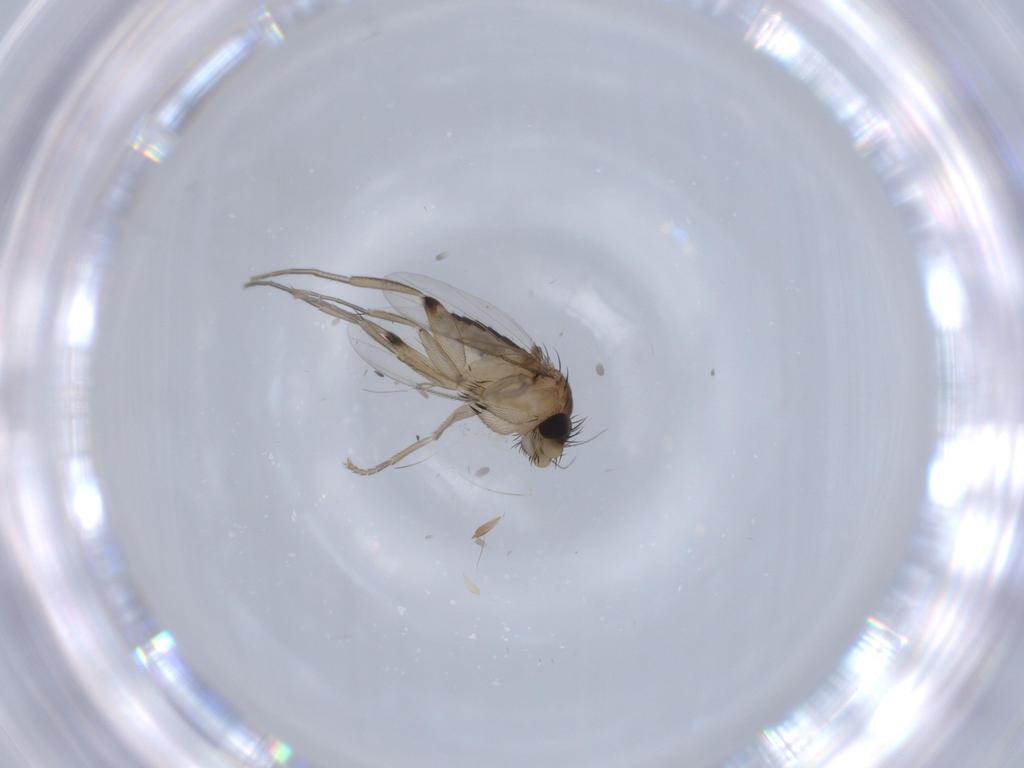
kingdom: Animalia
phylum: Arthropoda
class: Insecta
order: Diptera
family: Phoridae
